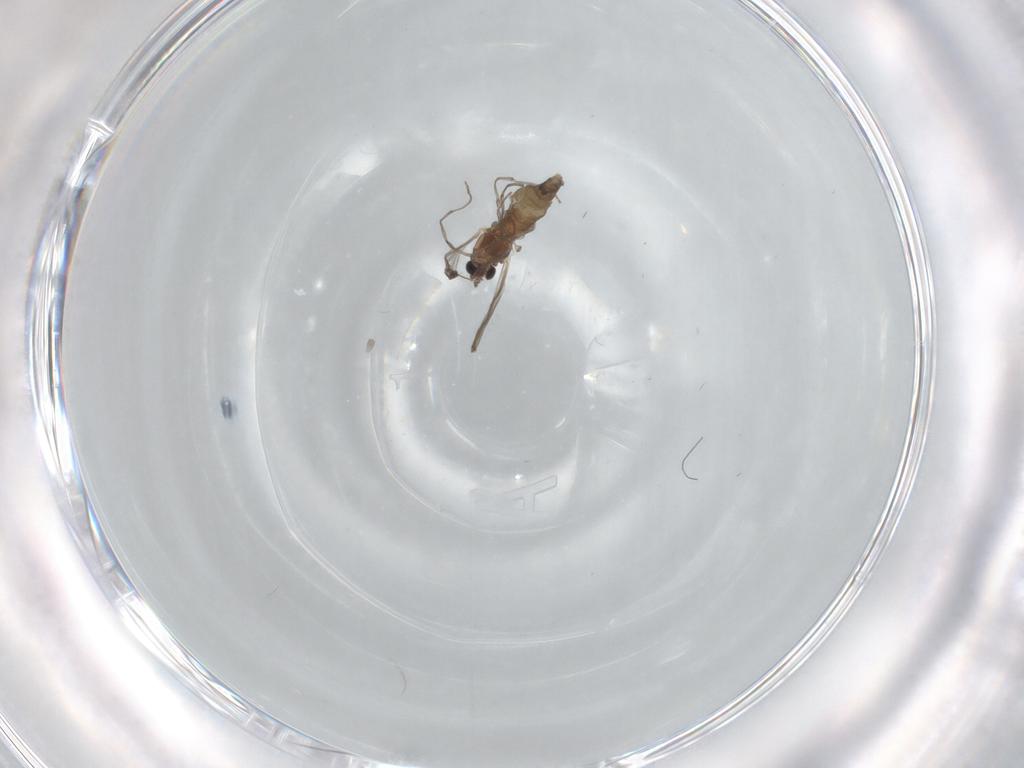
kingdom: Animalia
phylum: Arthropoda
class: Insecta
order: Diptera
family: Chironomidae
